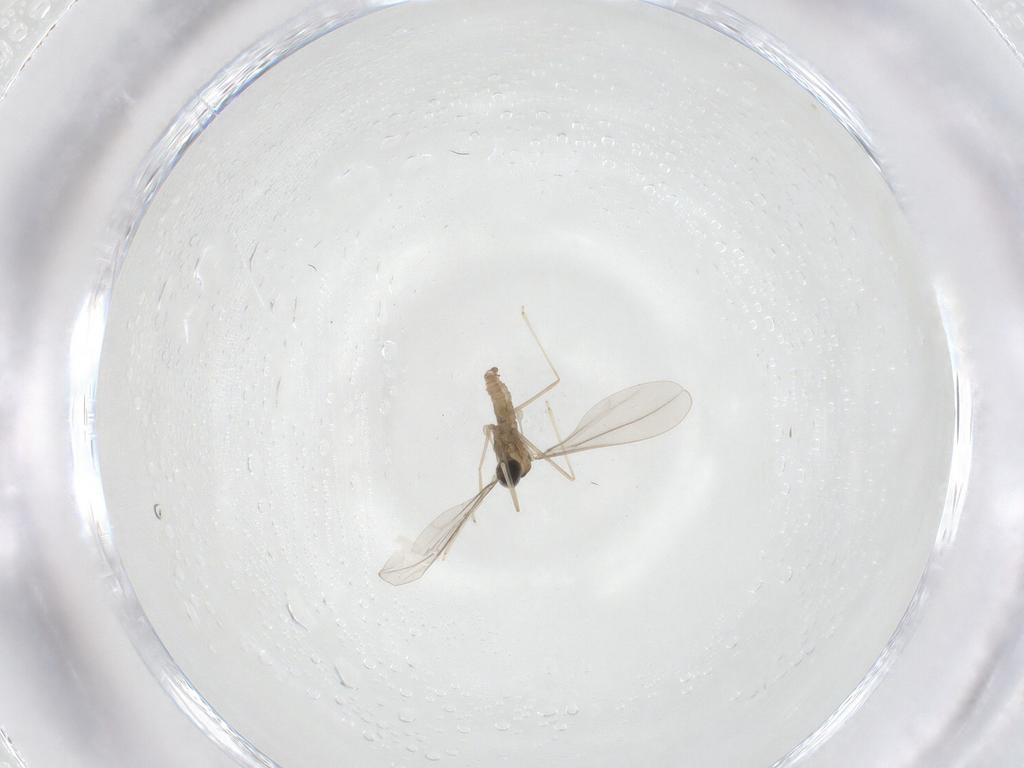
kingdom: Animalia
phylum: Arthropoda
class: Insecta
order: Diptera
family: Cecidomyiidae
